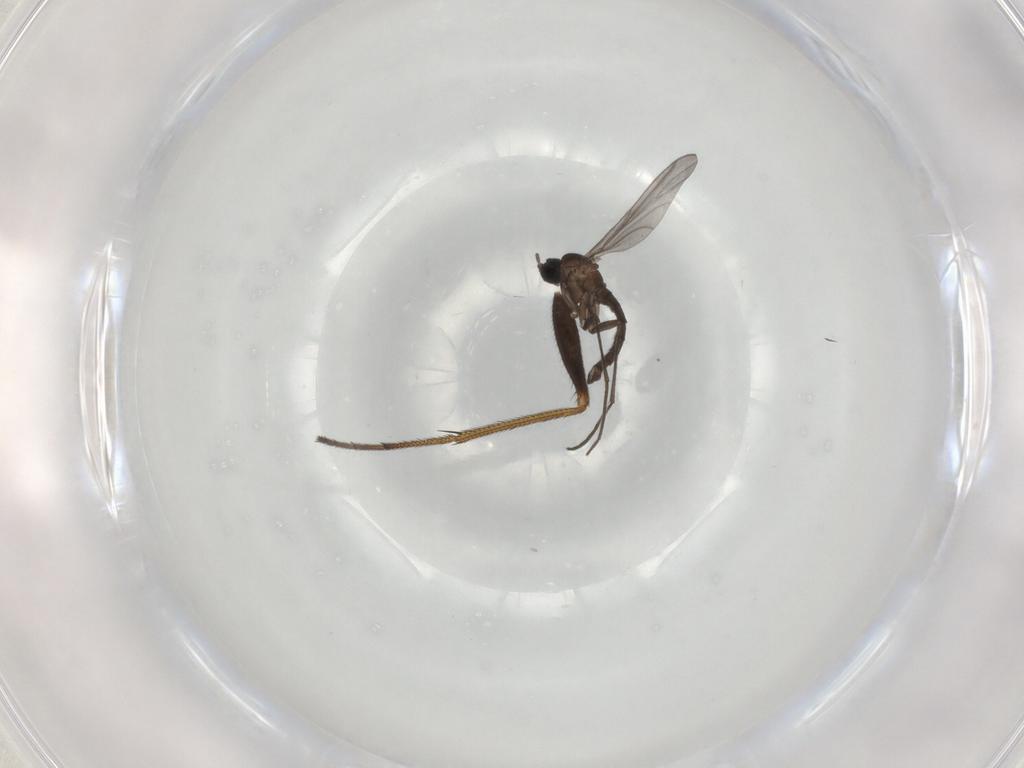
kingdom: Animalia
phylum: Arthropoda
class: Insecta
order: Diptera
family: Sciaridae
